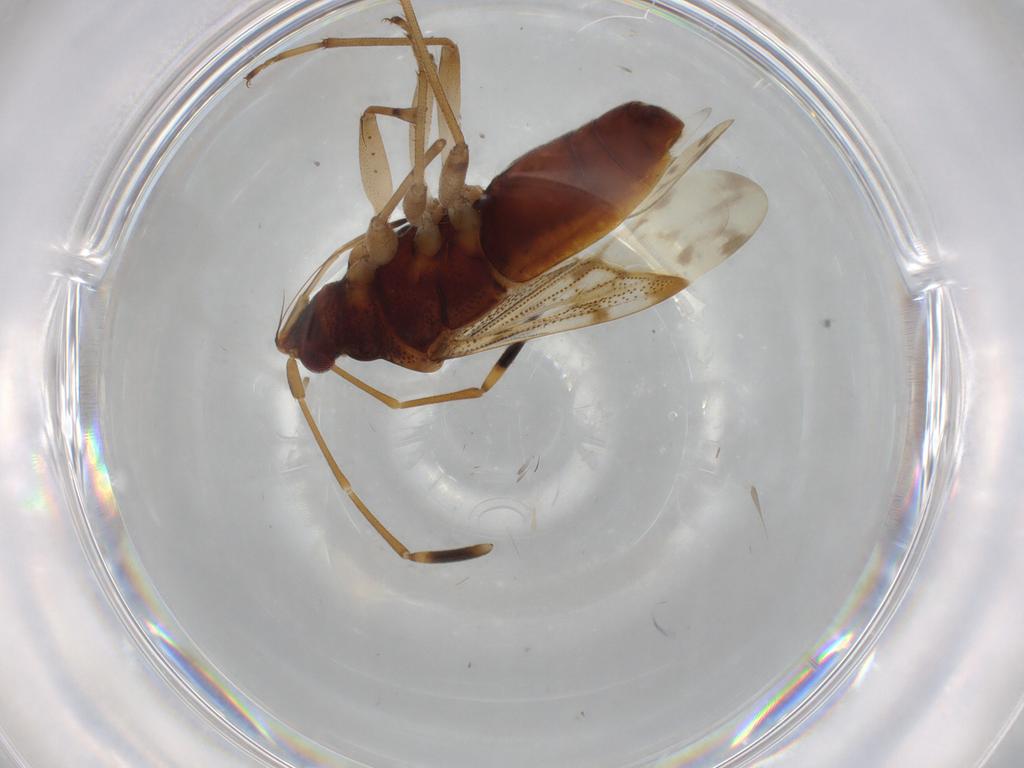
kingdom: Animalia
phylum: Arthropoda
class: Insecta
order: Hemiptera
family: Rhyparochromidae
